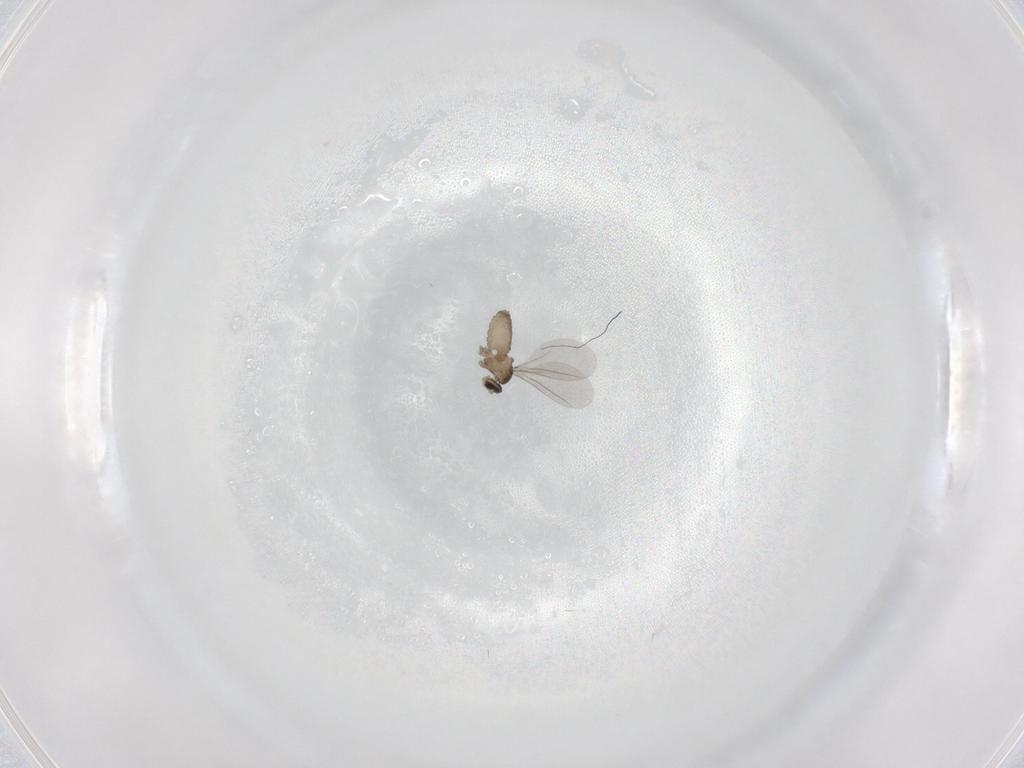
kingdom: Animalia
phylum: Arthropoda
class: Insecta
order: Diptera
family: Cecidomyiidae
